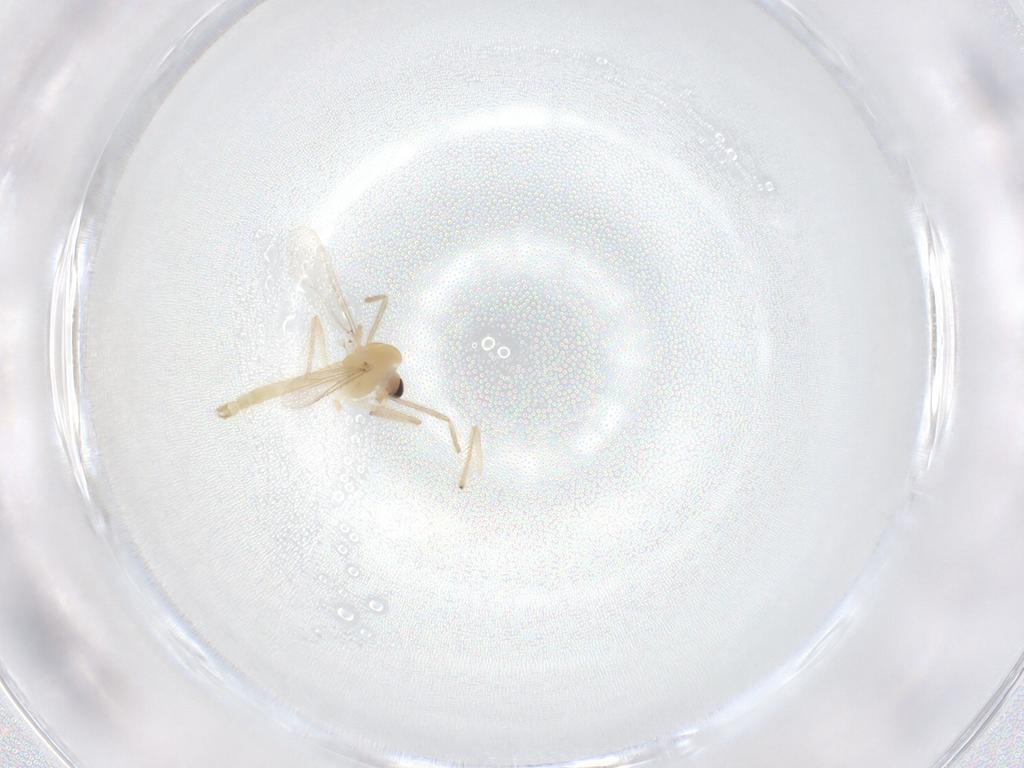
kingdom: Animalia
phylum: Arthropoda
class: Insecta
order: Diptera
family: Chironomidae
